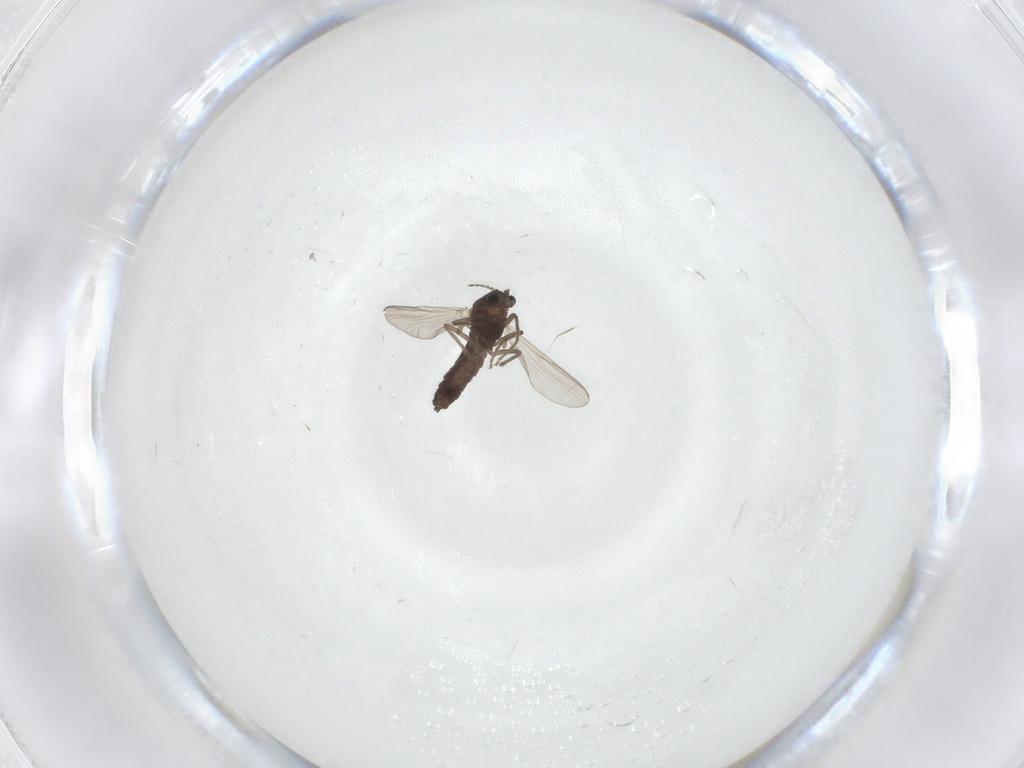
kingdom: Animalia
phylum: Arthropoda
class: Insecta
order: Diptera
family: Chironomidae
